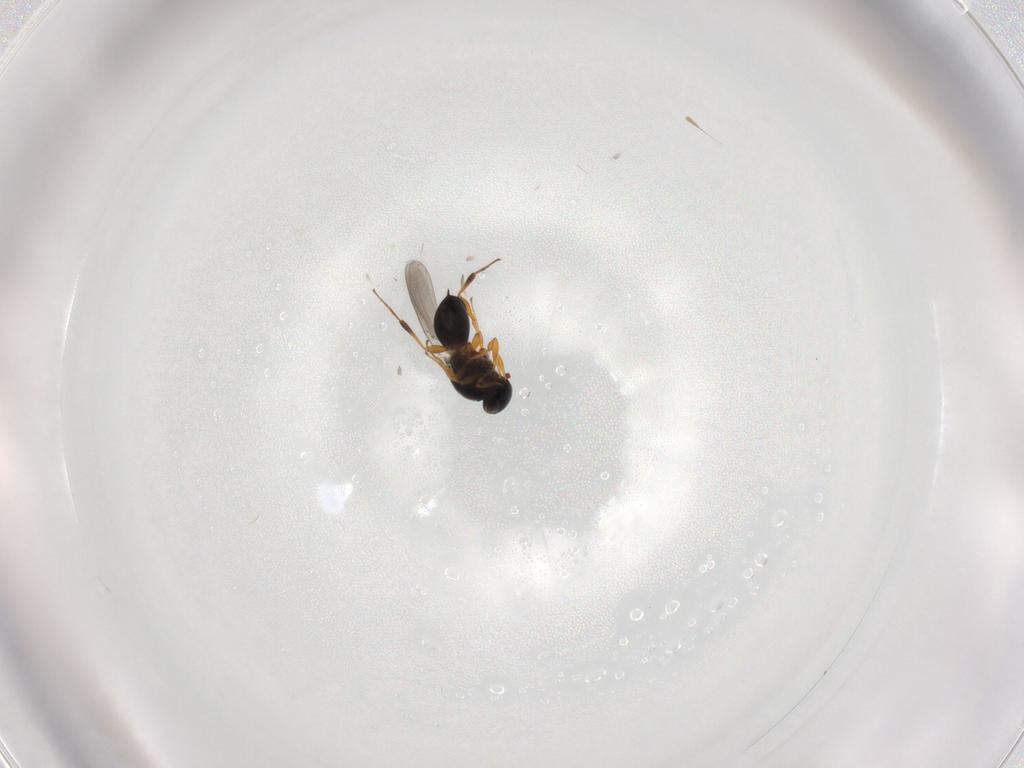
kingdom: Animalia
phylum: Arthropoda
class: Insecta
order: Hymenoptera
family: Platygastridae
